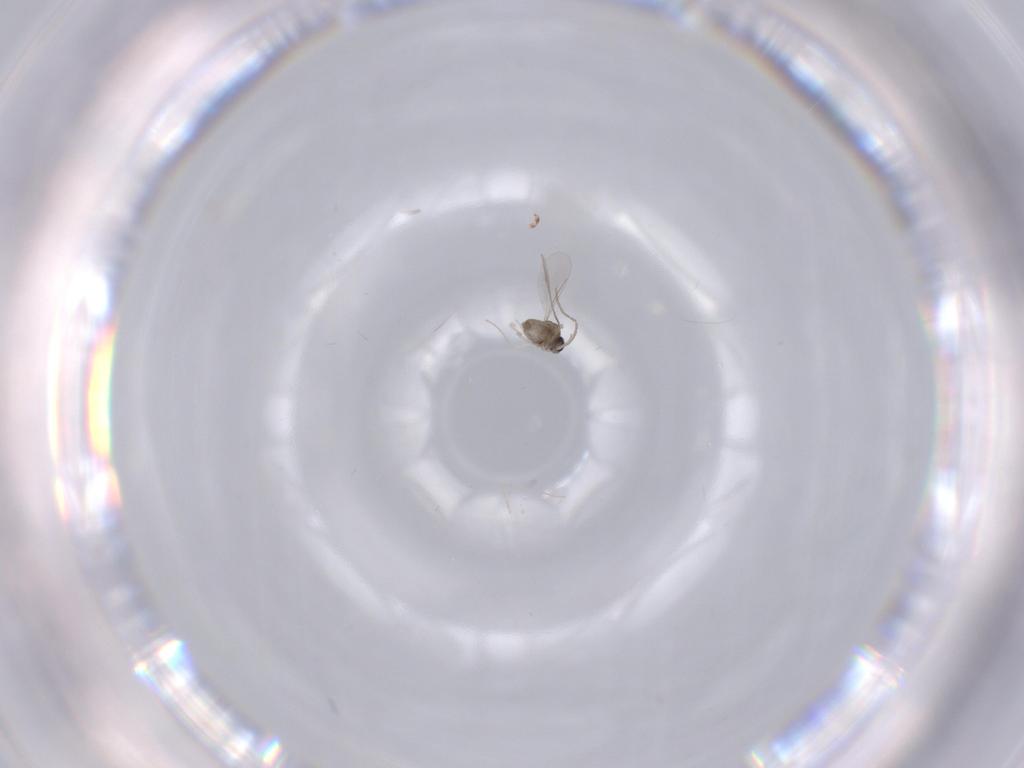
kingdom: Animalia
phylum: Arthropoda
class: Insecta
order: Diptera
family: Cecidomyiidae
